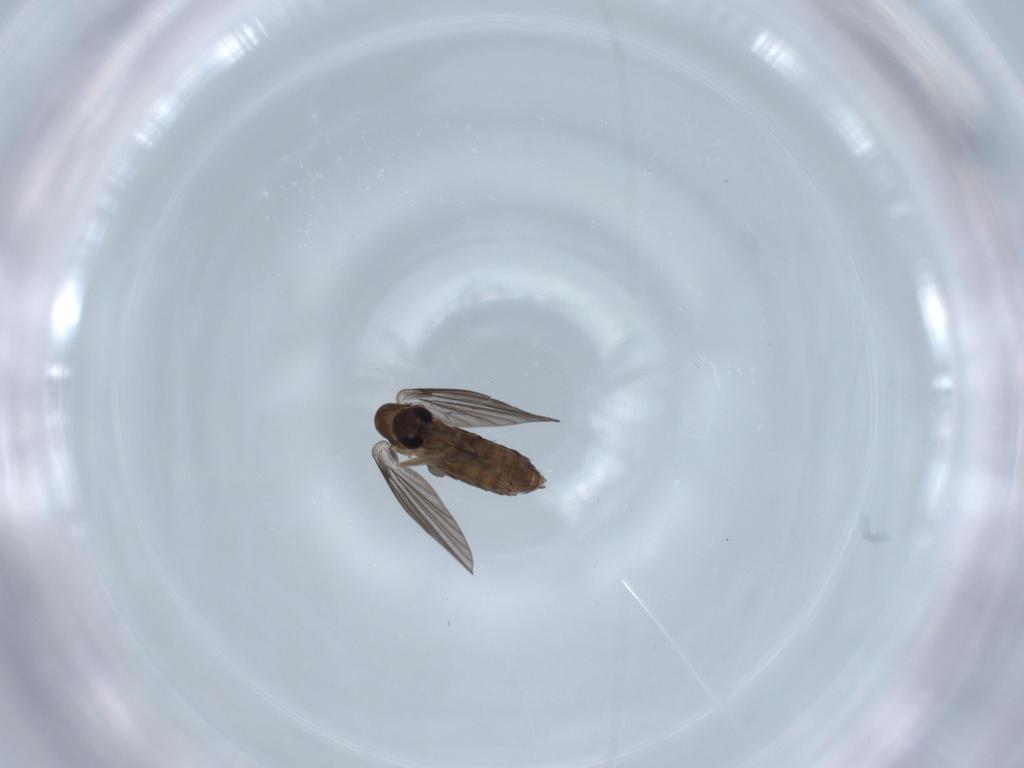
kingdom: Animalia
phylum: Arthropoda
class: Insecta
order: Diptera
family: Psychodidae
